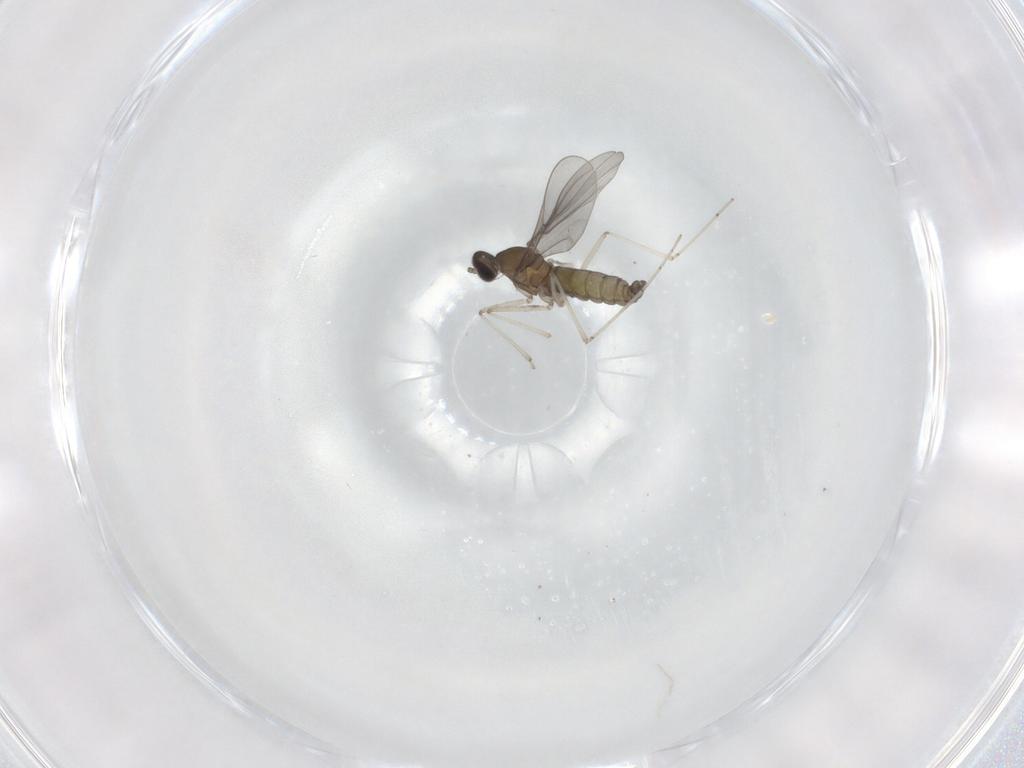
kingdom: Animalia
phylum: Arthropoda
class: Insecta
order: Diptera
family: Cecidomyiidae
